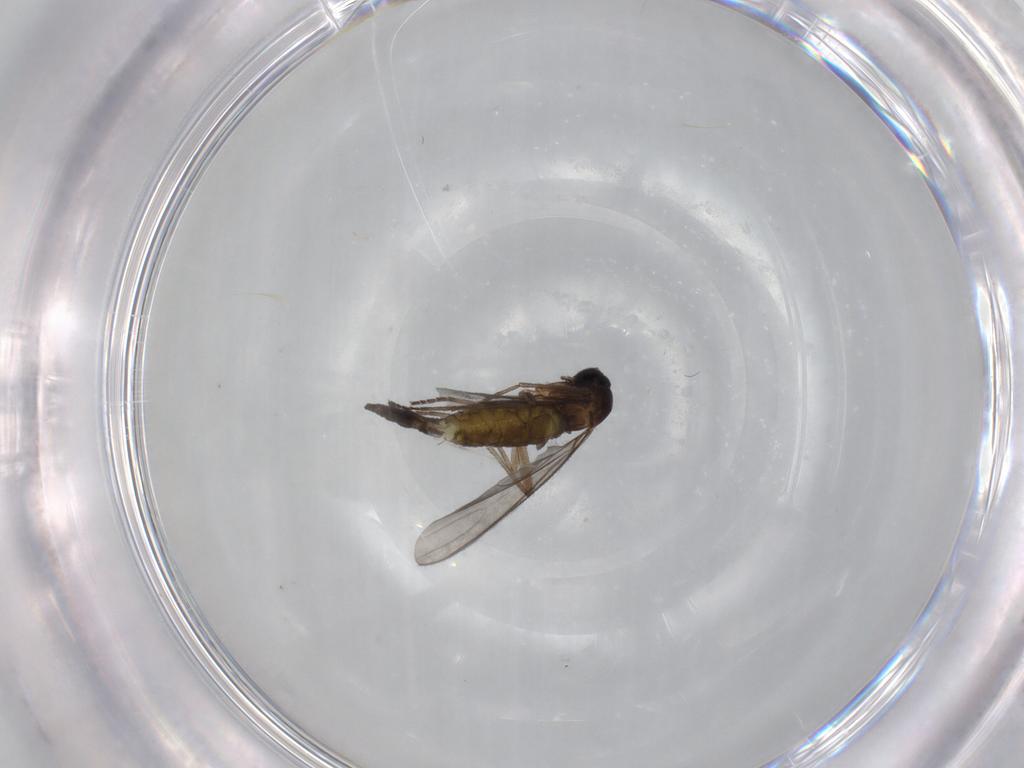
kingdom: Animalia
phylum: Arthropoda
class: Insecta
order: Diptera
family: Sciaridae
